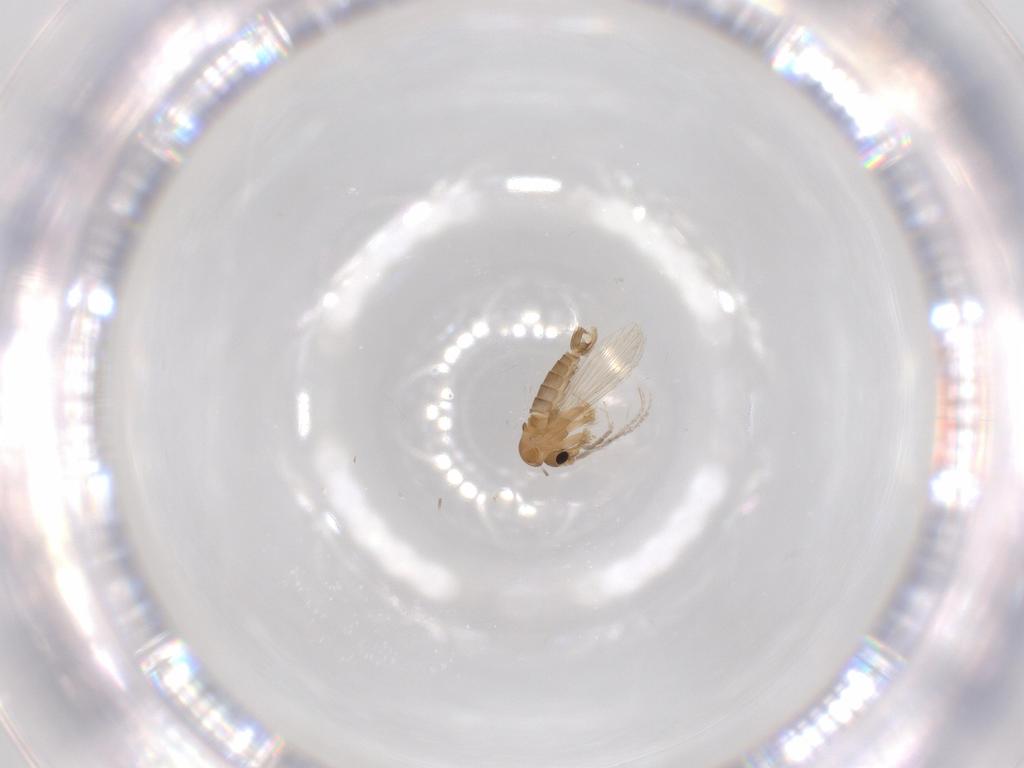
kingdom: Animalia
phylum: Arthropoda
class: Insecta
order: Diptera
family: Psychodidae
